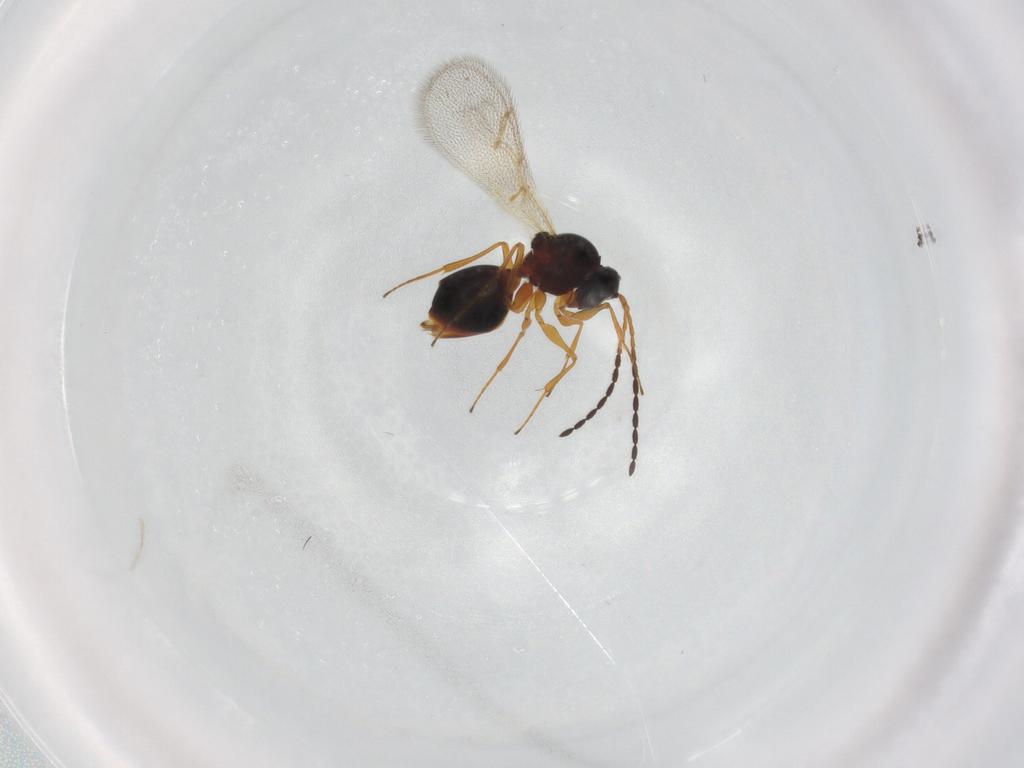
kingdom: Animalia
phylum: Arthropoda
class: Insecta
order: Hymenoptera
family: Figitidae
